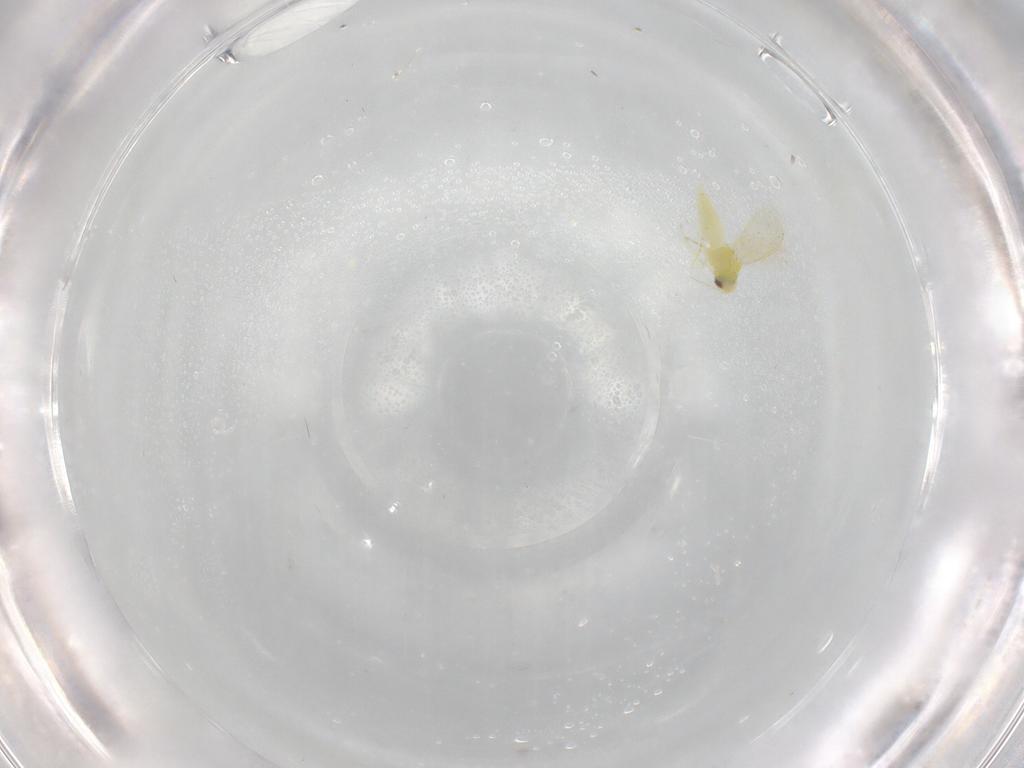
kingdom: Animalia
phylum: Arthropoda
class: Insecta
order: Hemiptera
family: Aleyrodidae
